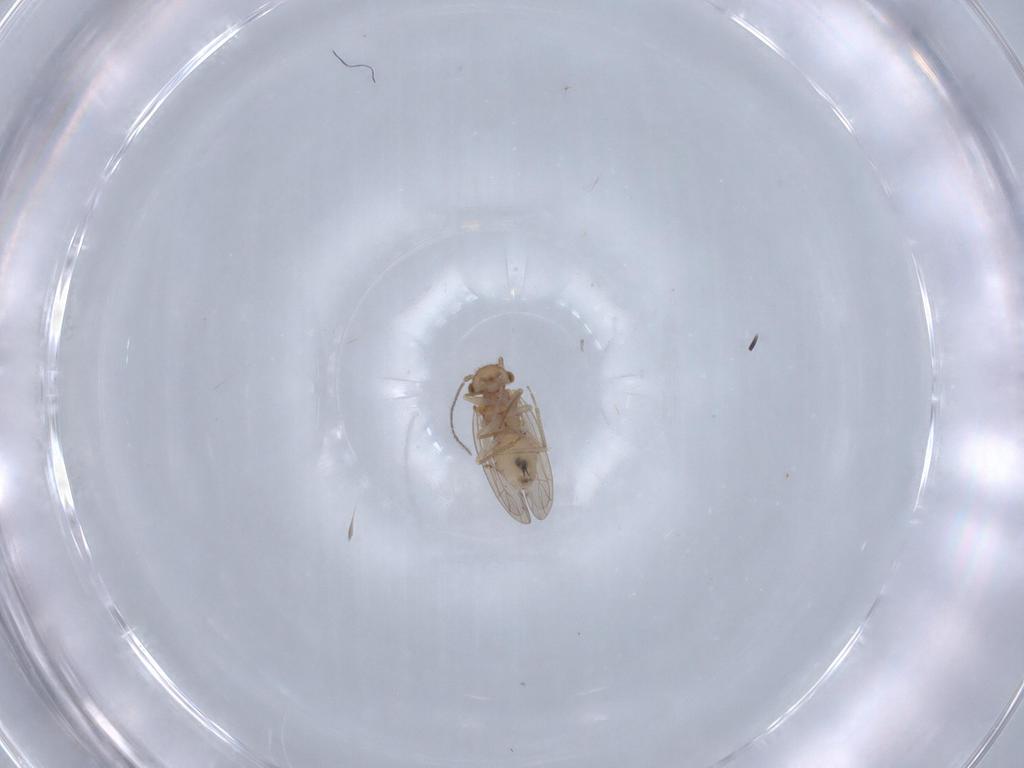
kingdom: Animalia
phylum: Arthropoda
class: Insecta
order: Psocodea
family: Ectopsocidae
